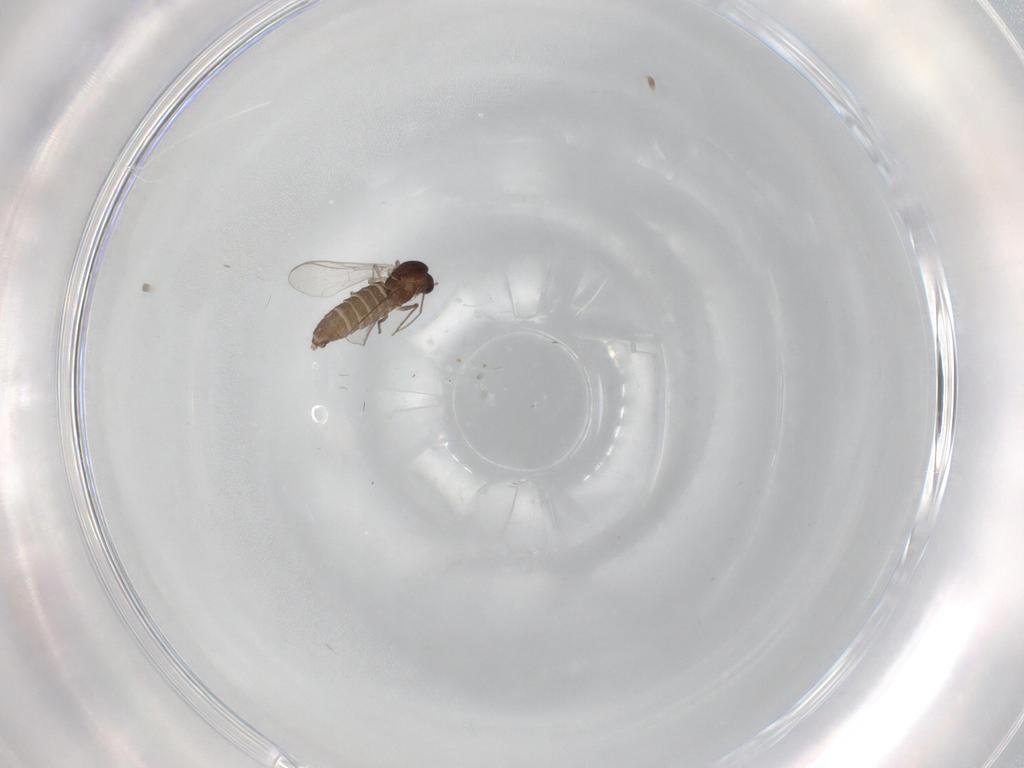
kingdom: Animalia
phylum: Arthropoda
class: Insecta
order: Diptera
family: Chironomidae
